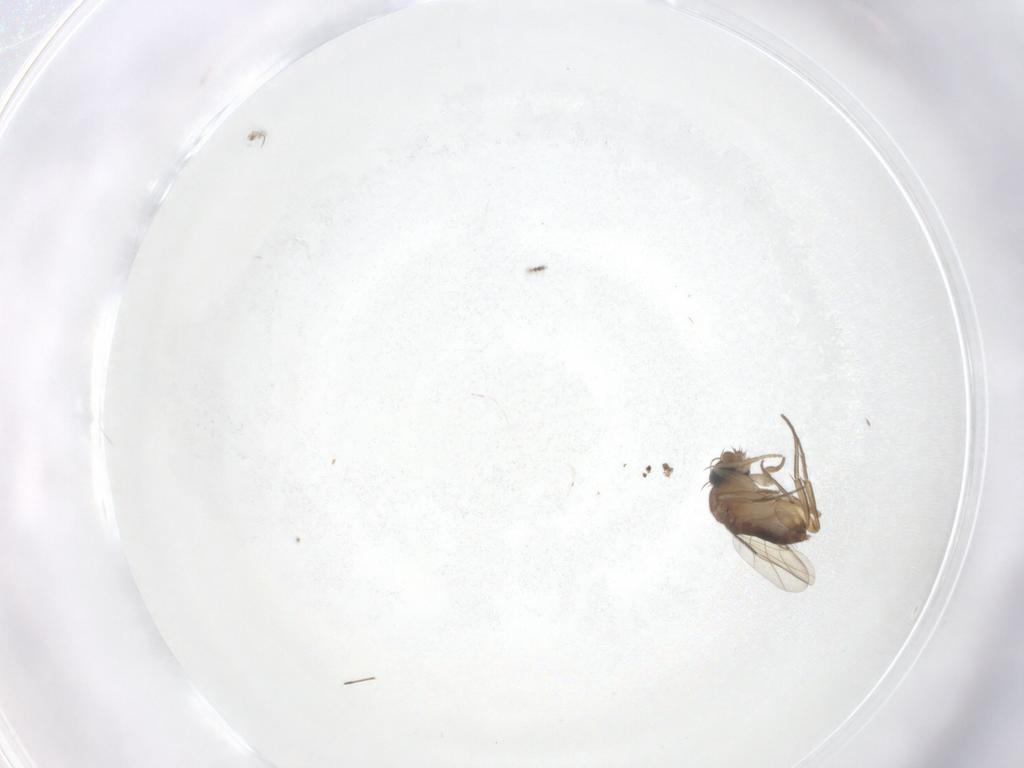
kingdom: Animalia
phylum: Arthropoda
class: Insecta
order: Diptera
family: Phoridae
